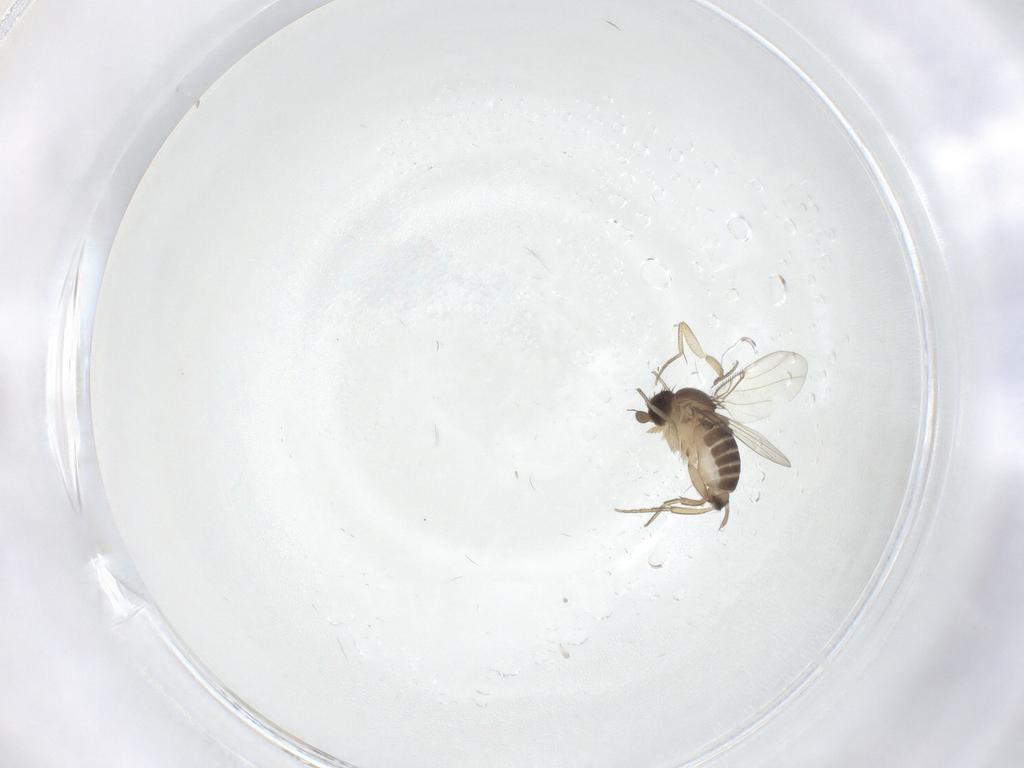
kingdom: Animalia
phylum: Arthropoda
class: Insecta
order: Diptera
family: Phoridae
